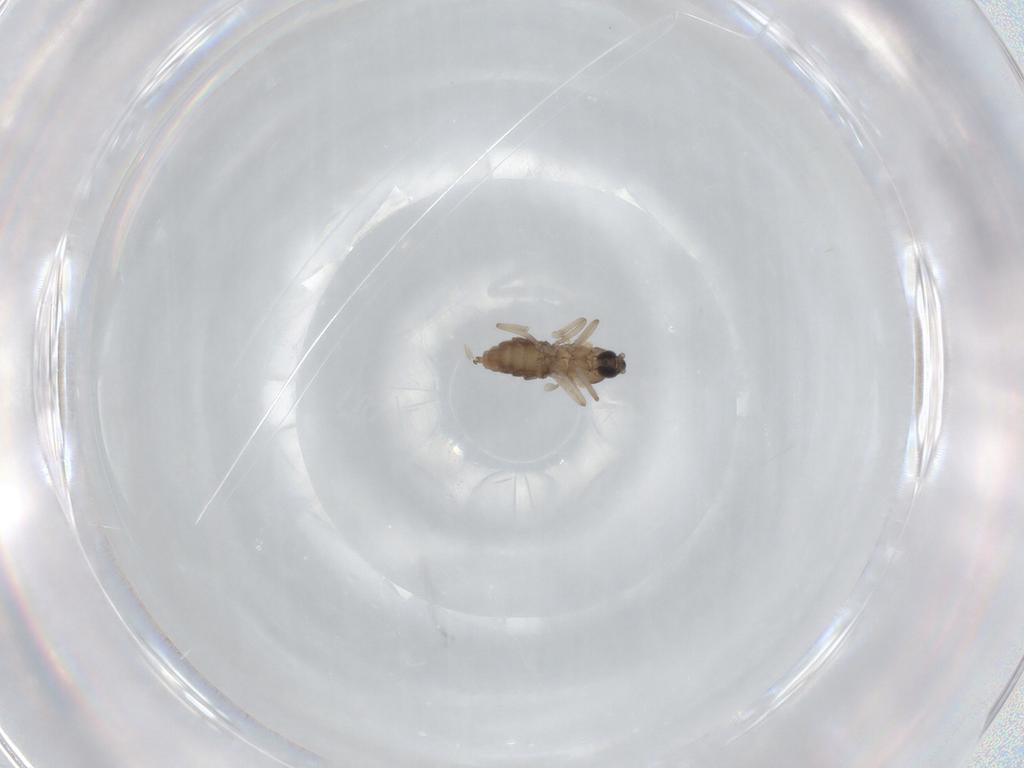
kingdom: Animalia
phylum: Arthropoda
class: Insecta
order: Diptera
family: Cecidomyiidae
